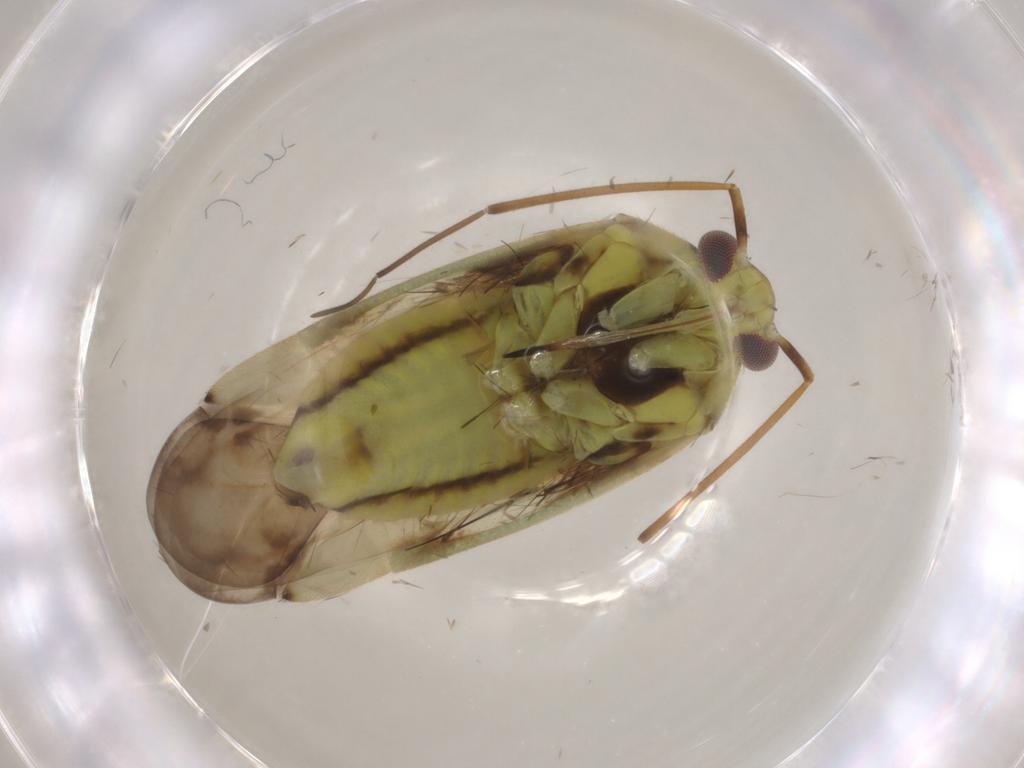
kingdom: Animalia
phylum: Arthropoda
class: Insecta
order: Hemiptera
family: Miridae
